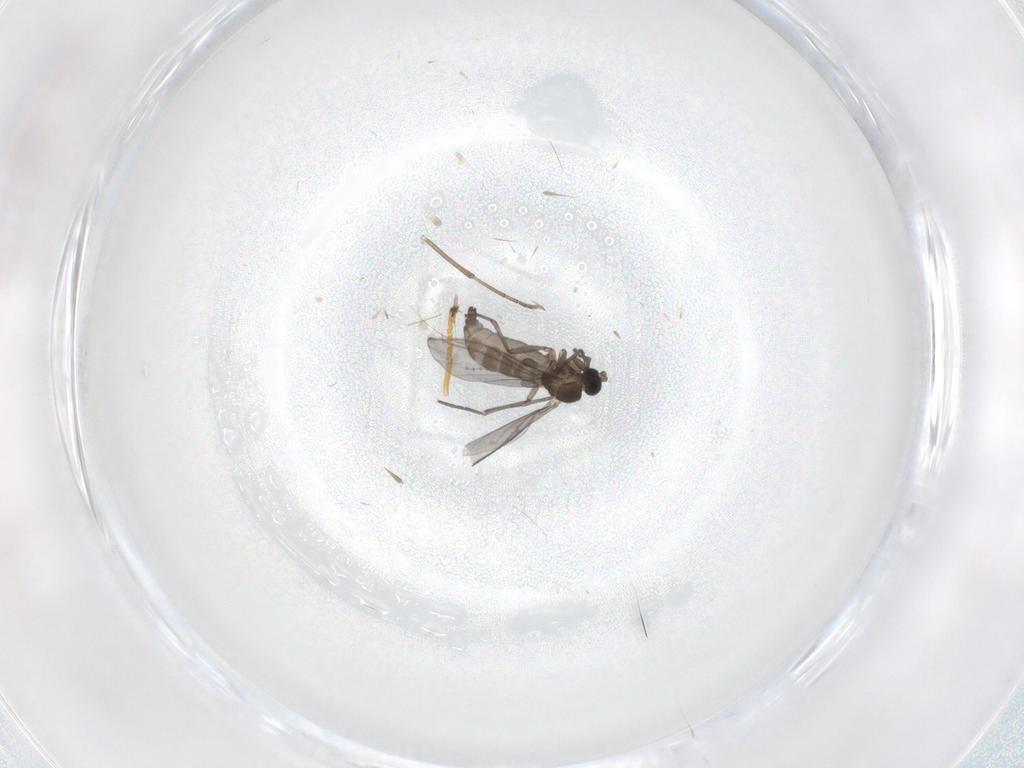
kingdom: Animalia
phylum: Arthropoda
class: Insecta
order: Diptera
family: Sciaridae
